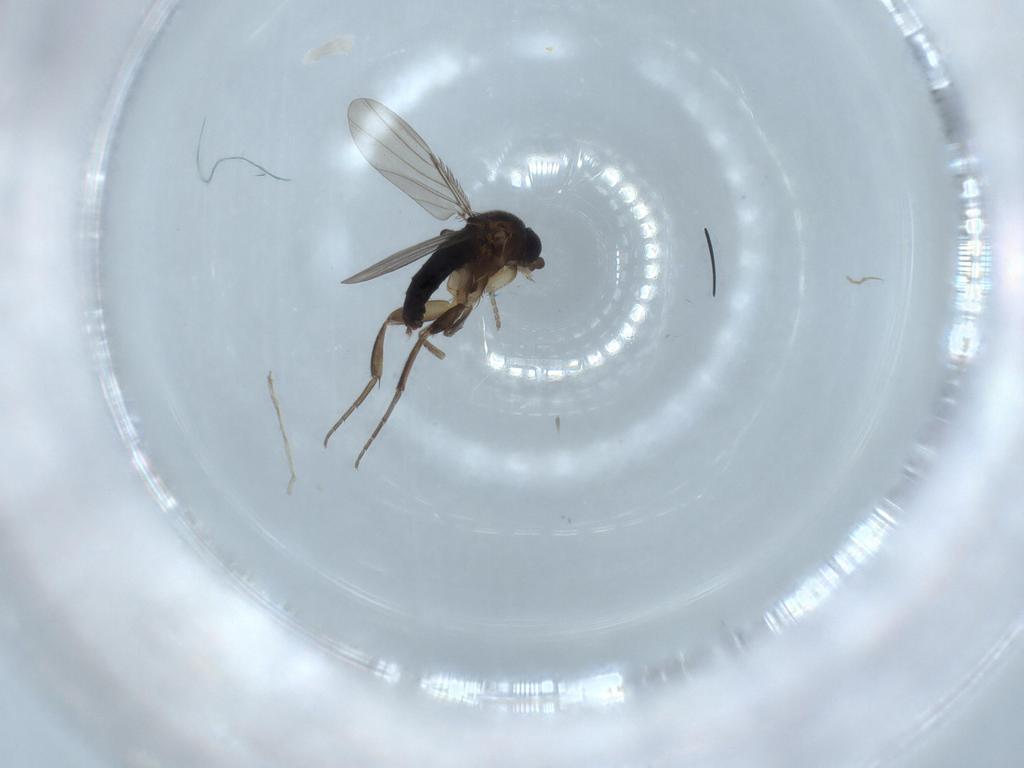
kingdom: Animalia
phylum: Arthropoda
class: Insecta
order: Diptera
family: Phoridae
